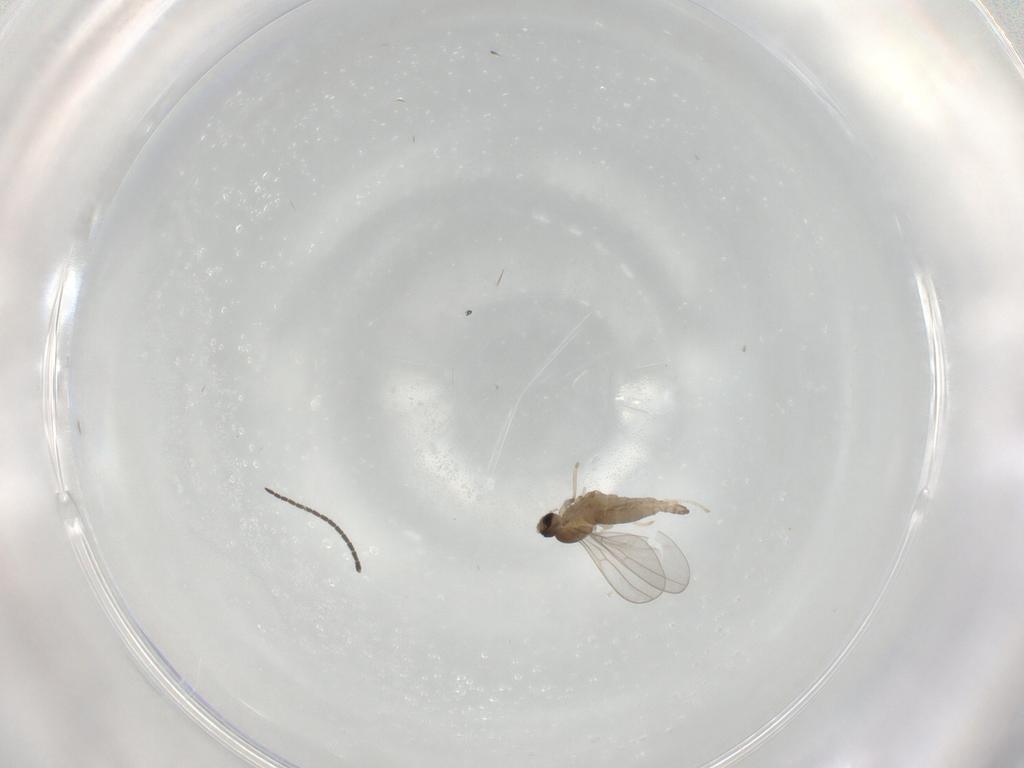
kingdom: Animalia
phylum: Arthropoda
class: Insecta
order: Diptera
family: Cecidomyiidae
